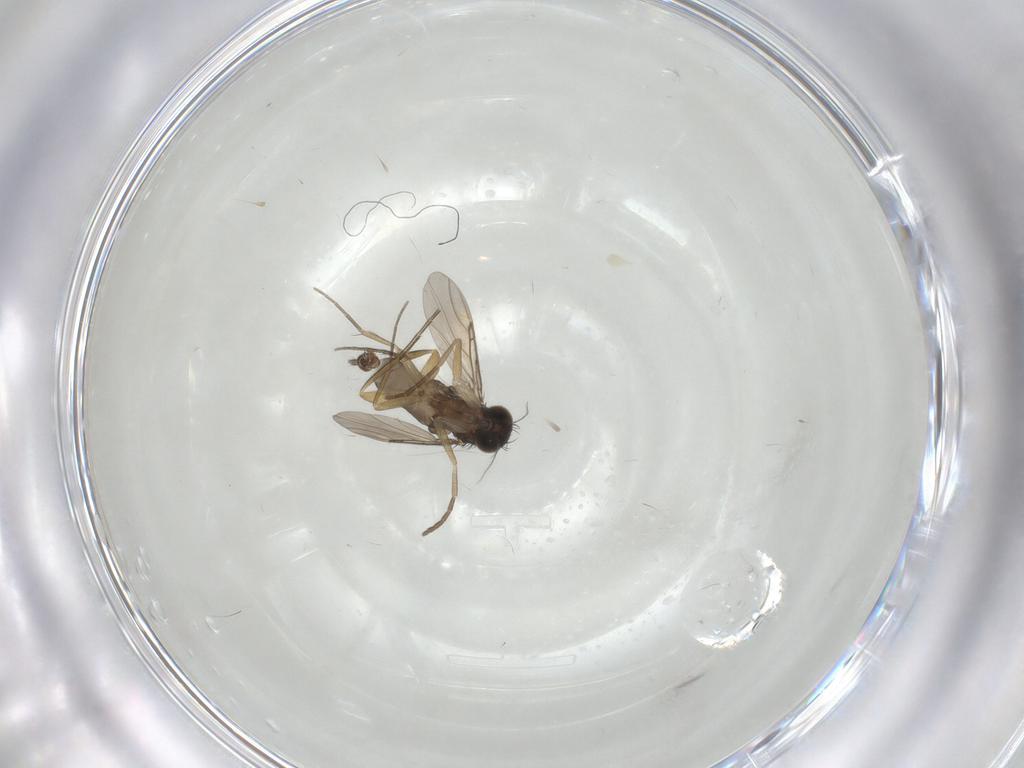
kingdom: Animalia
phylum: Arthropoda
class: Insecta
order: Diptera
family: Phoridae
